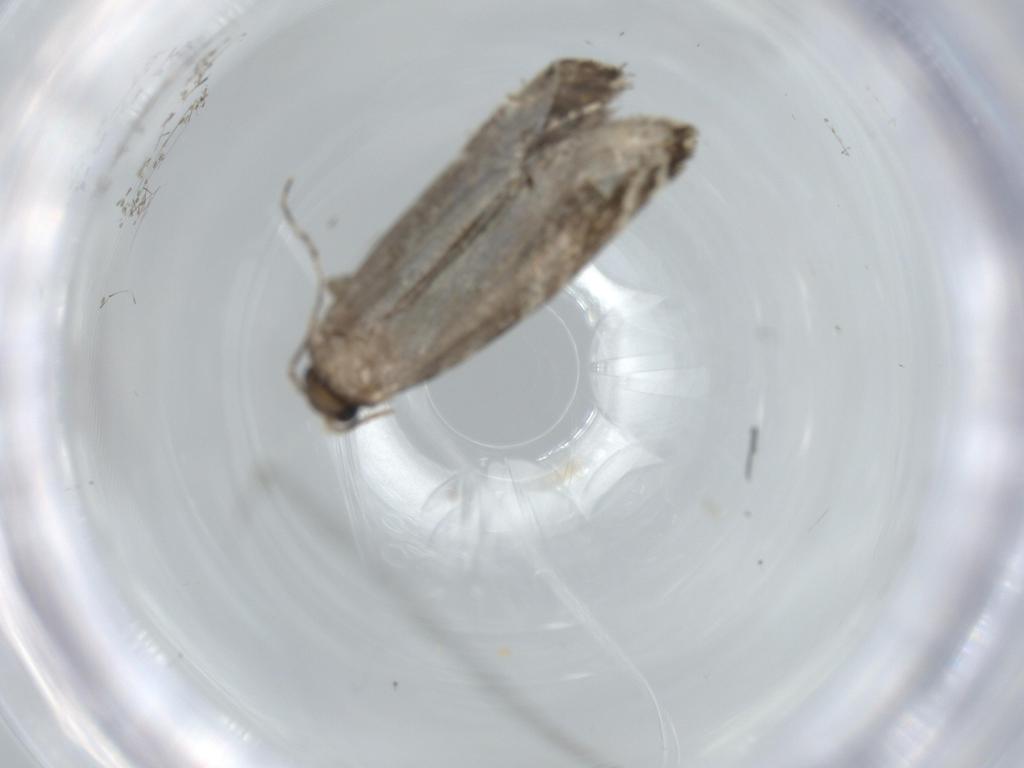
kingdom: Animalia
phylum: Arthropoda
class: Insecta
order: Lepidoptera
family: Tineidae
